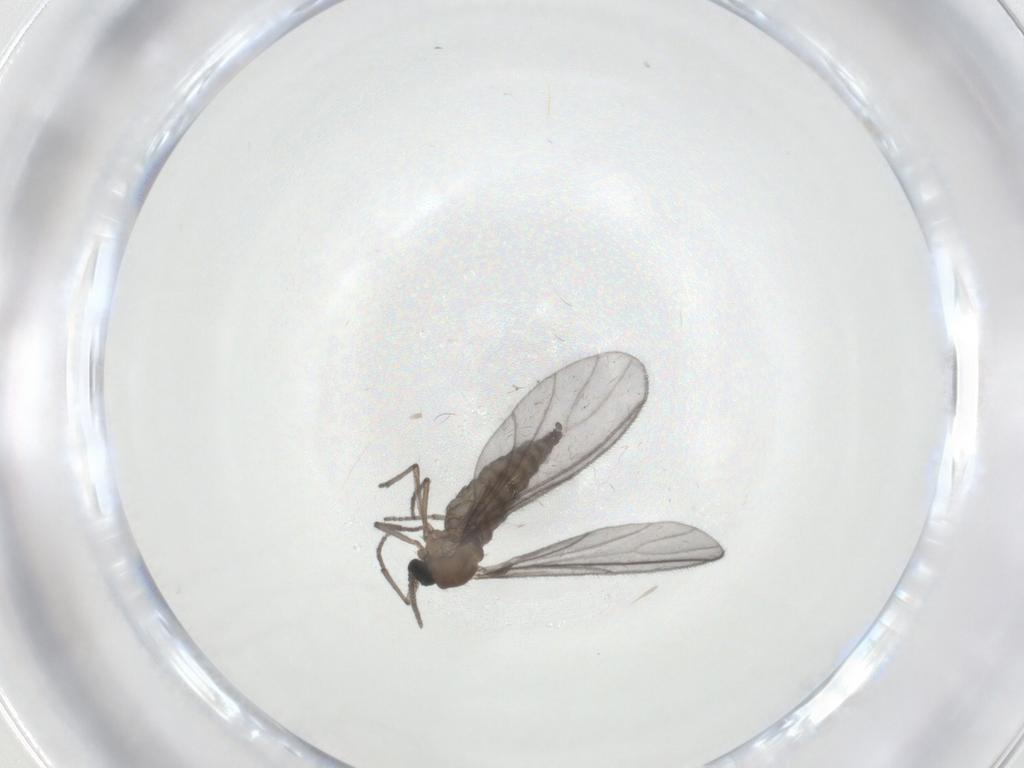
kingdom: Animalia
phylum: Arthropoda
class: Insecta
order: Diptera
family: Sciaridae
